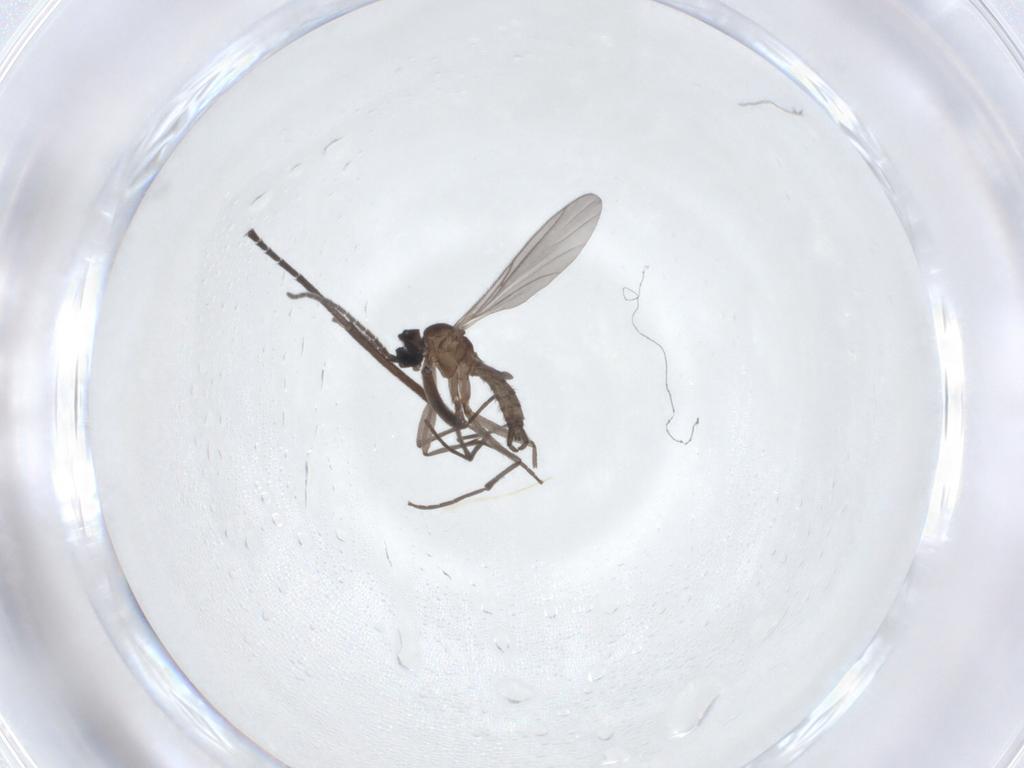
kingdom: Animalia
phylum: Arthropoda
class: Insecta
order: Diptera
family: Sciaridae
